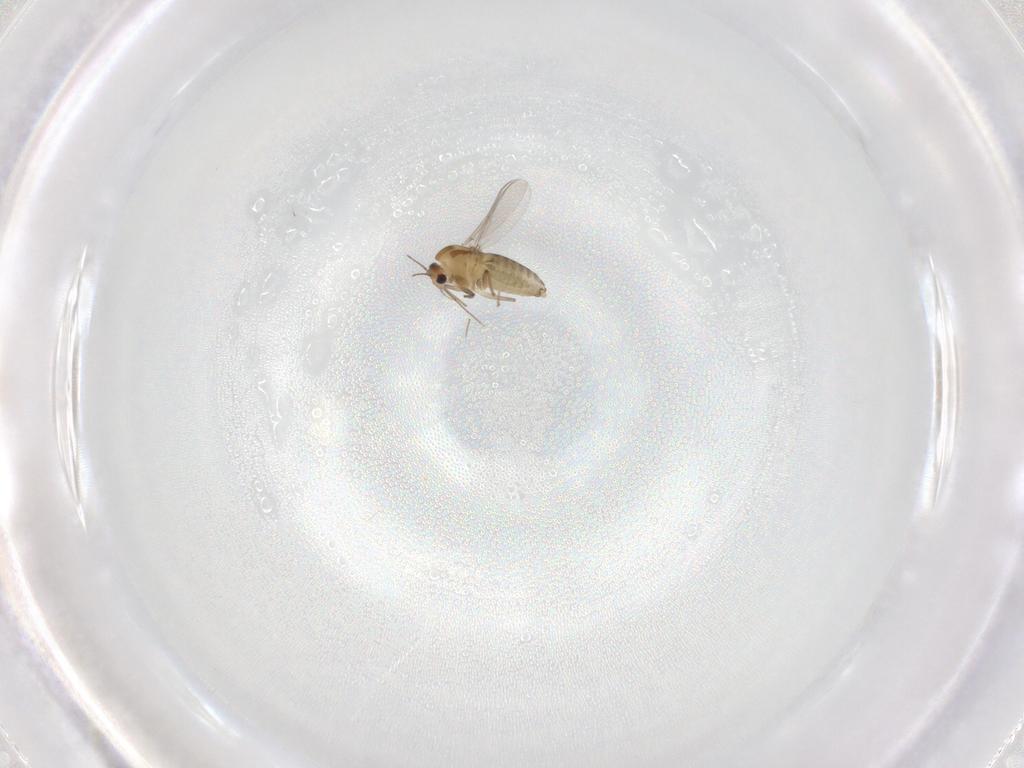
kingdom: Animalia
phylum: Arthropoda
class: Insecta
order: Diptera
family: Chironomidae
